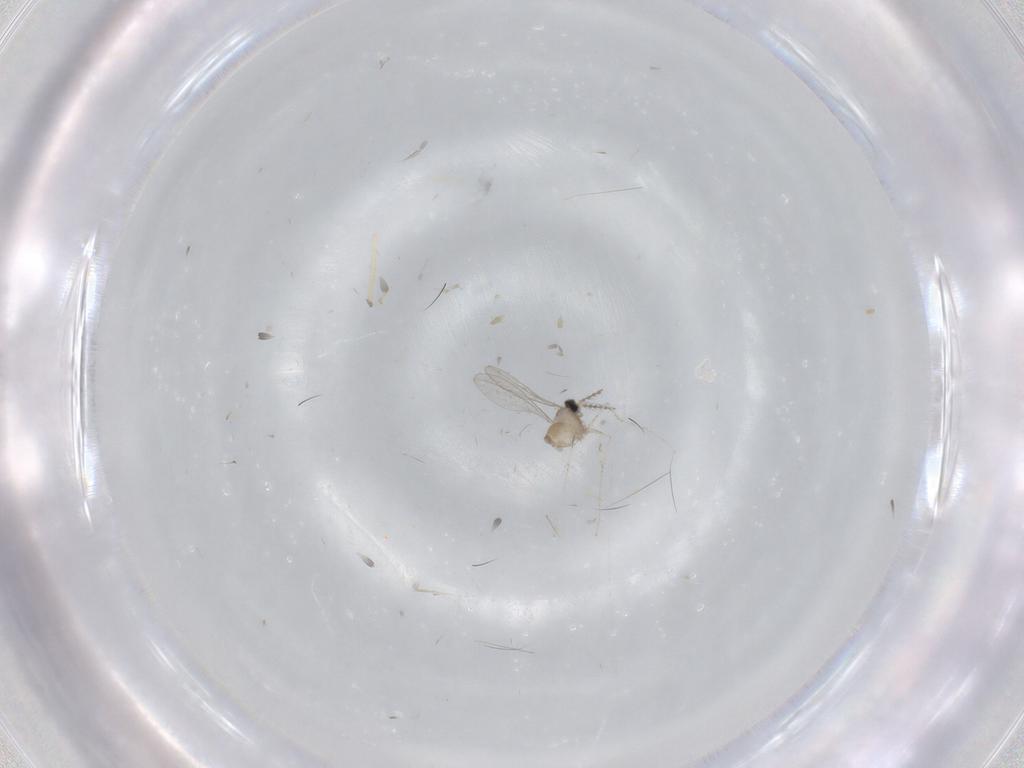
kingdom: Animalia
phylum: Arthropoda
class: Insecta
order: Diptera
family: Cecidomyiidae
